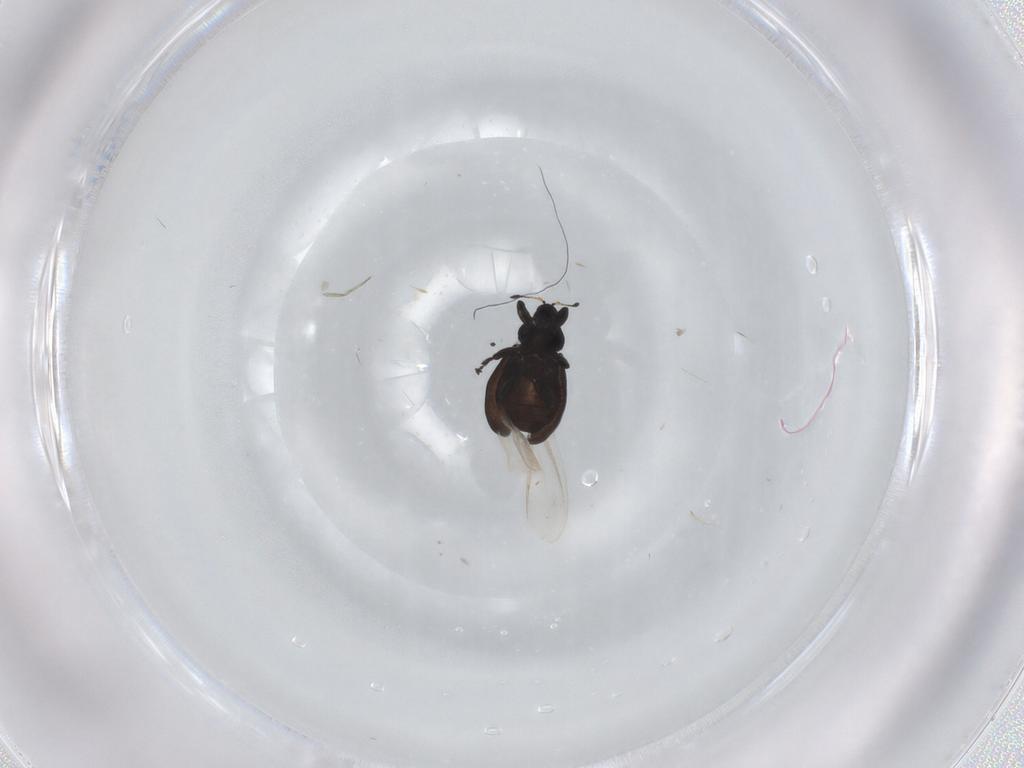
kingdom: Animalia
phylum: Arthropoda
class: Insecta
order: Coleoptera
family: Curculionidae
